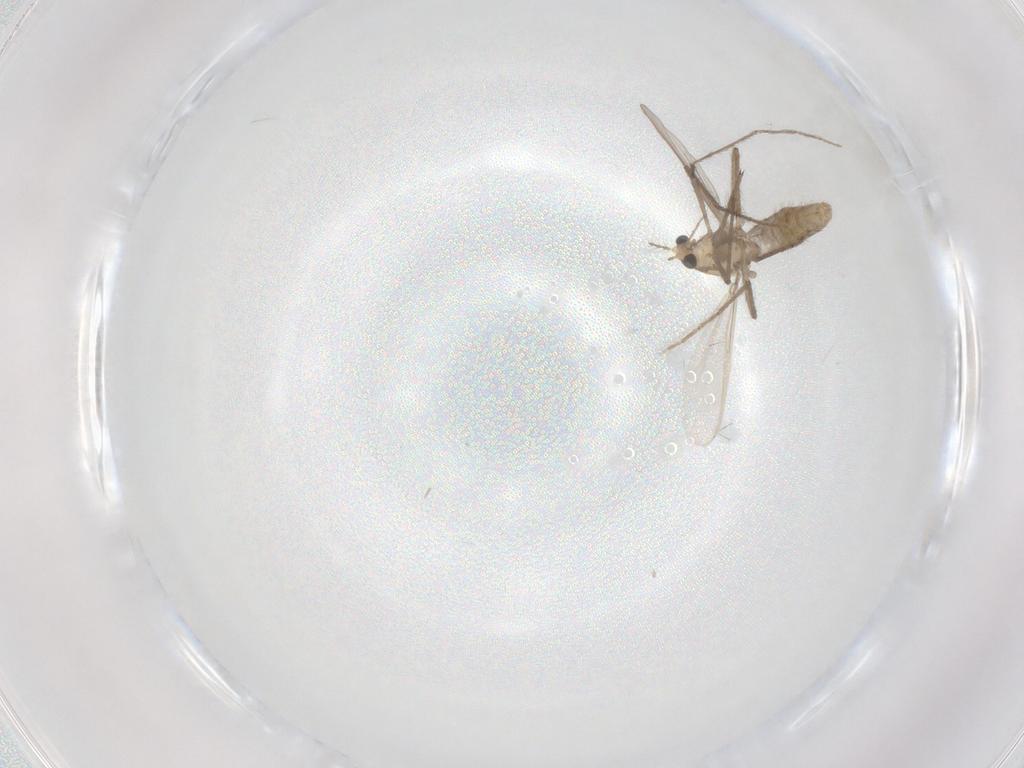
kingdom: Animalia
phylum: Arthropoda
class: Insecta
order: Diptera
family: Chironomidae
